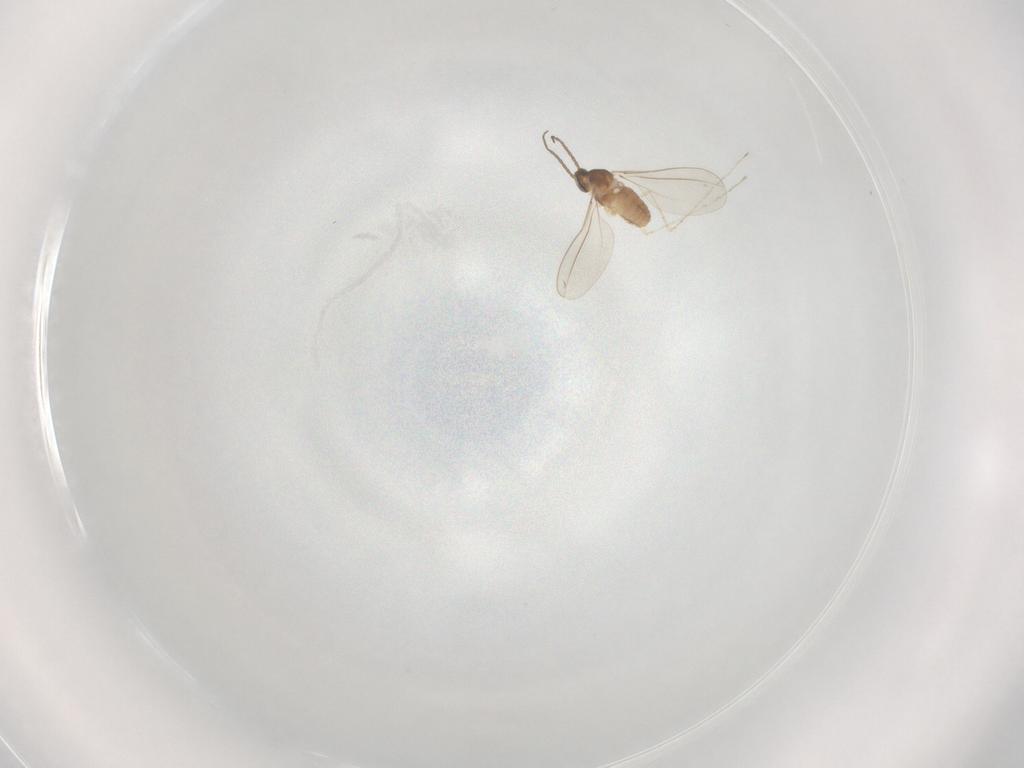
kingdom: Animalia
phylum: Arthropoda
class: Insecta
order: Diptera
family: Cecidomyiidae
